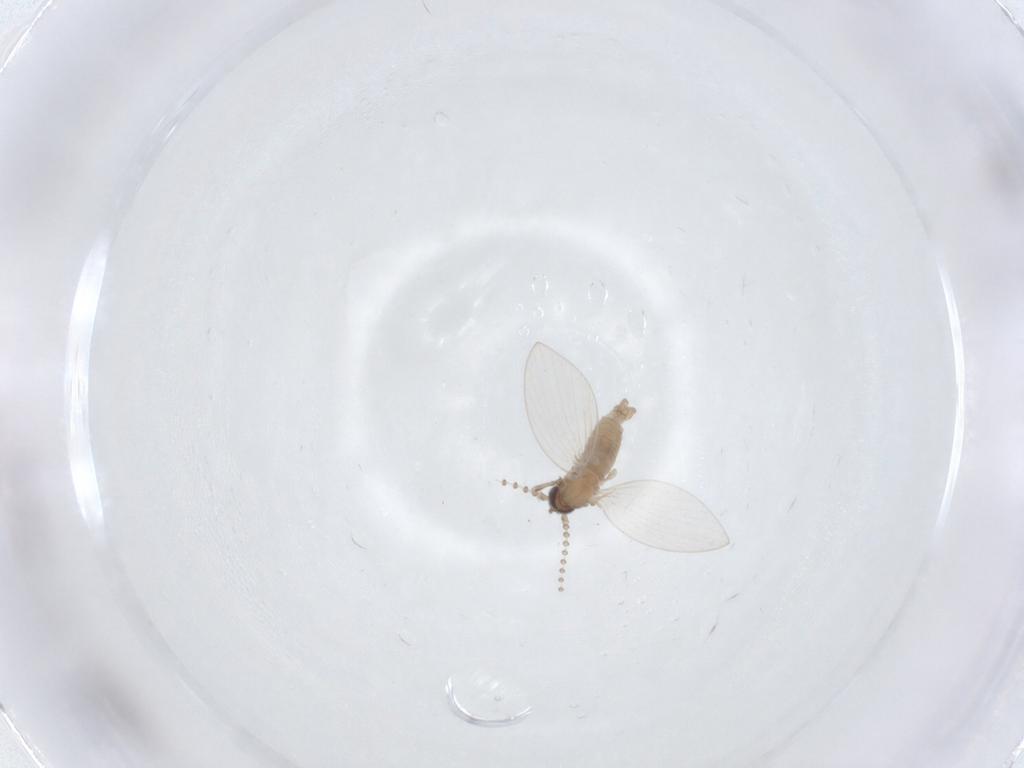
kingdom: Animalia
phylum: Arthropoda
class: Insecta
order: Diptera
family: Psychodidae
